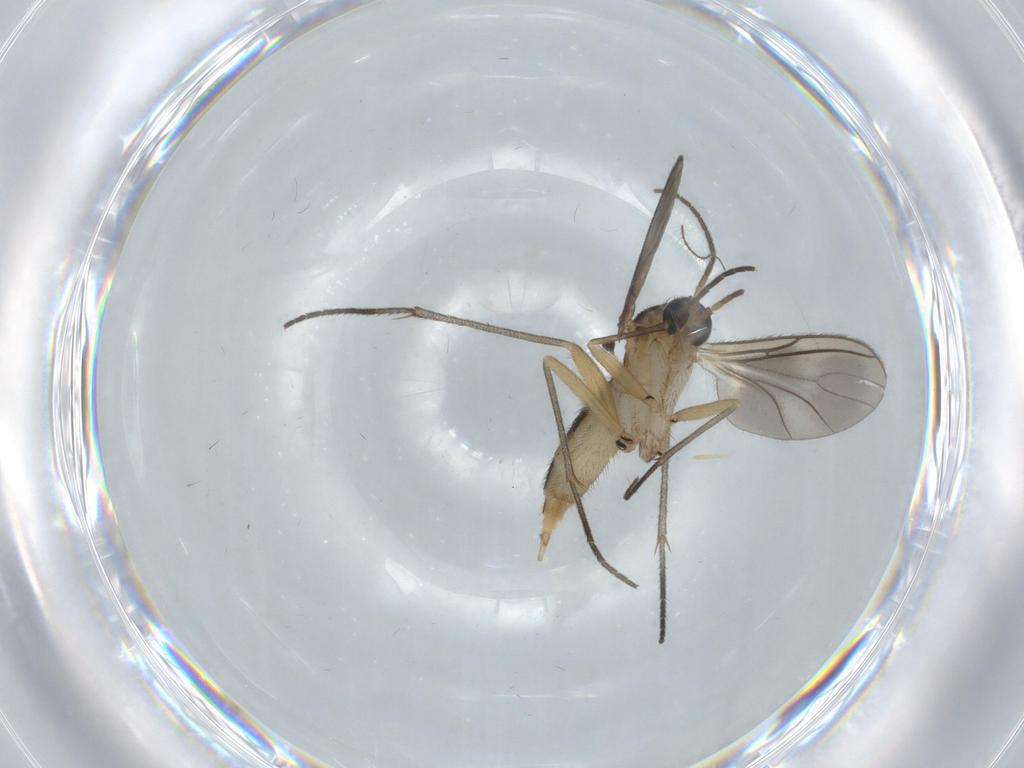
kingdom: Animalia
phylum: Arthropoda
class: Insecta
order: Diptera
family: Sciaridae
